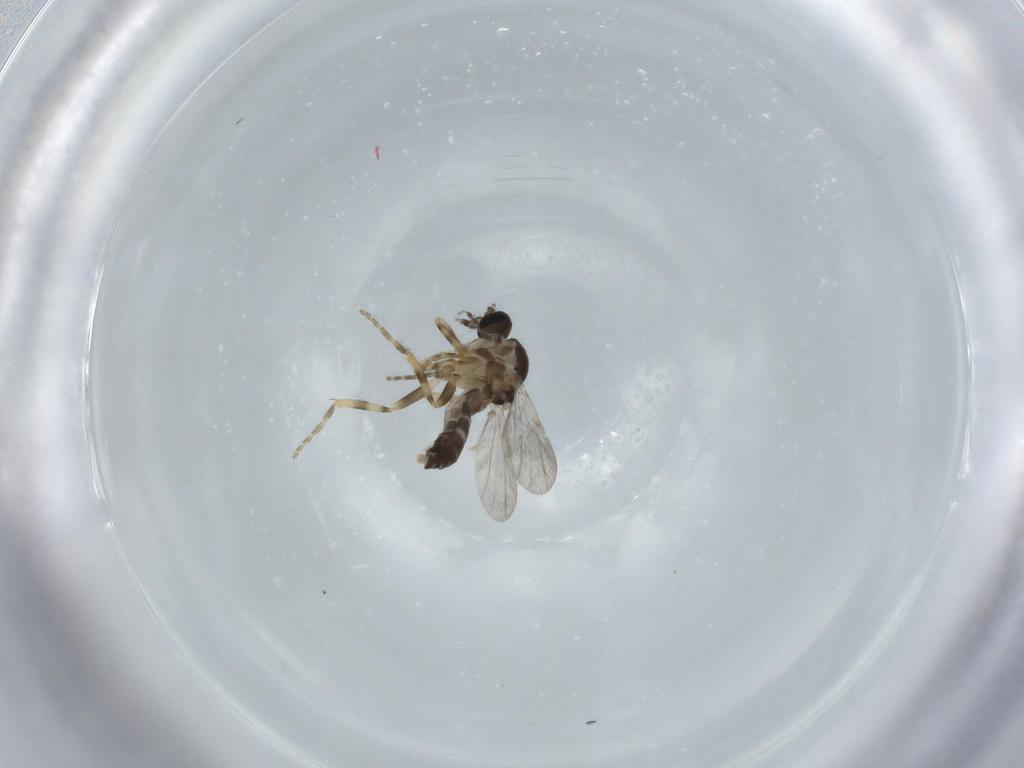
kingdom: Animalia
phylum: Arthropoda
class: Insecta
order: Diptera
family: Ceratopogonidae
